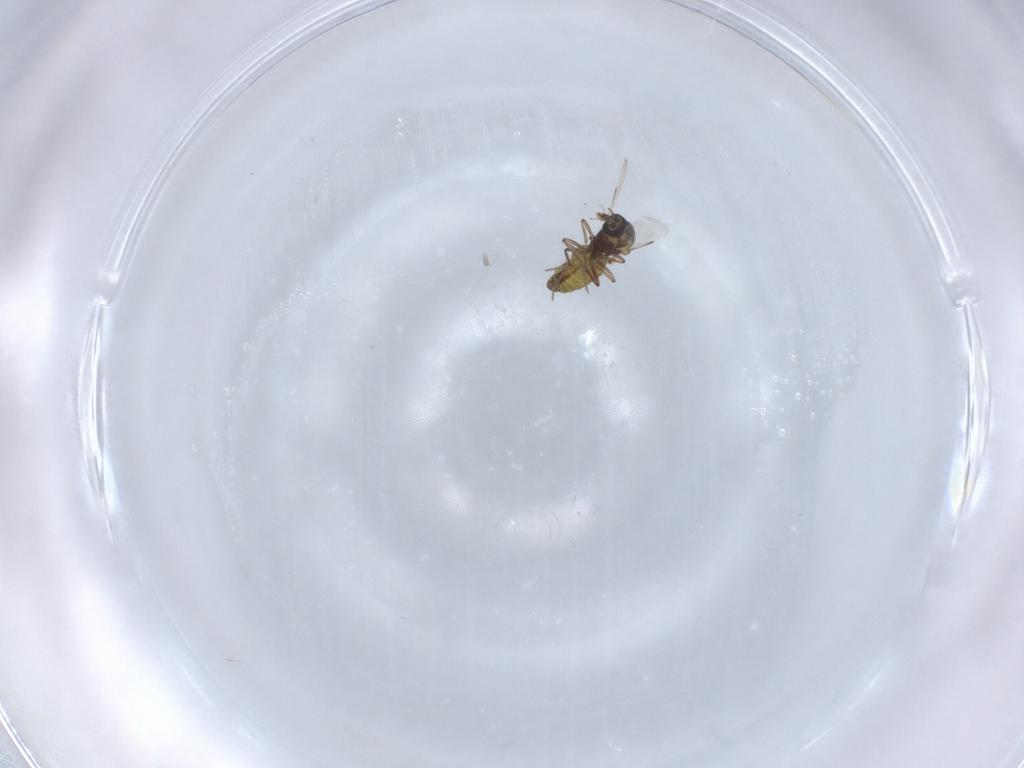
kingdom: Animalia
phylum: Arthropoda
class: Insecta
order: Diptera
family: Ceratopogonidae
